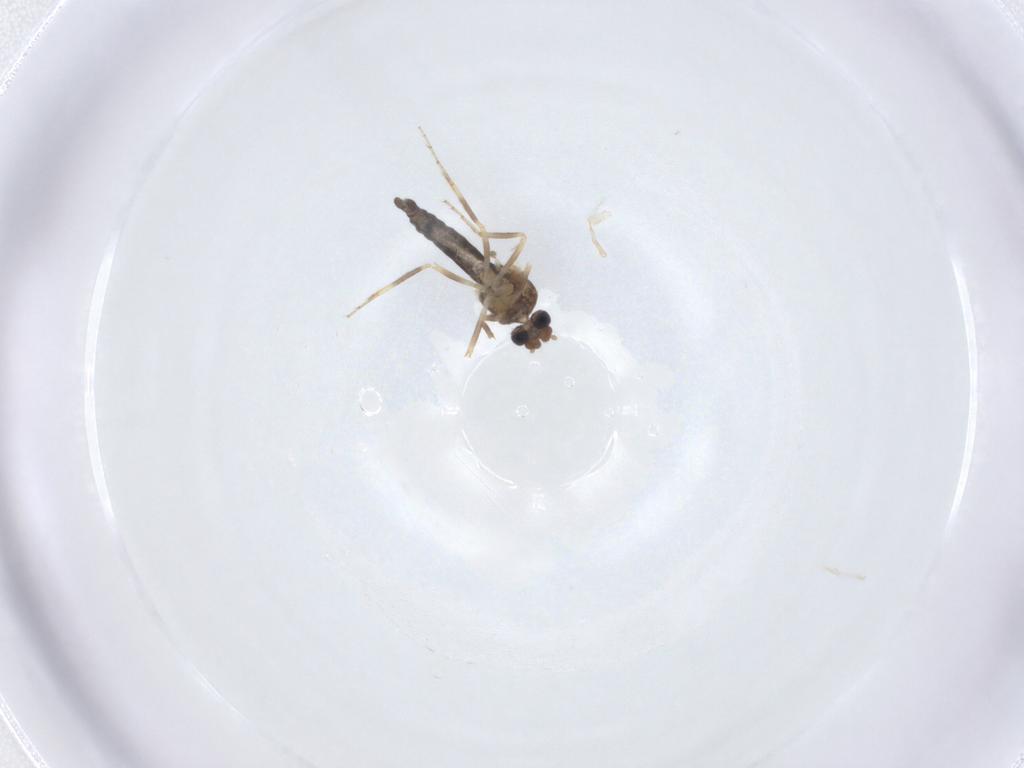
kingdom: Animalia
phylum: Arthropoda
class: Insecta
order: Diptera
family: Ceratopogonidae
